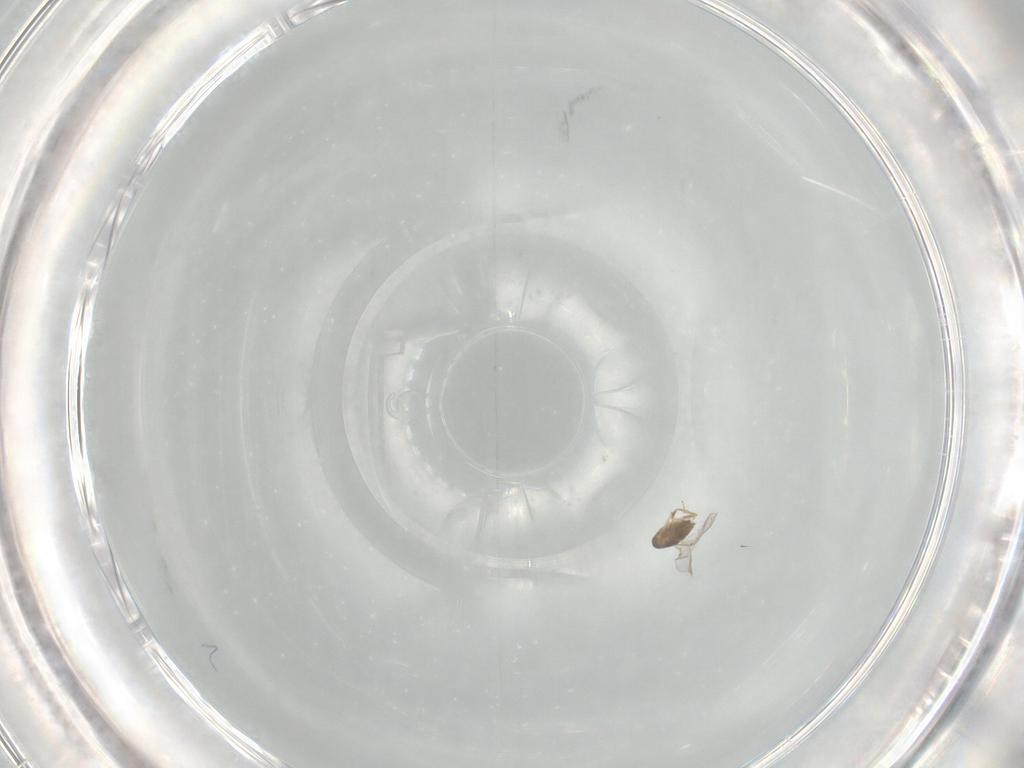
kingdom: Animalia
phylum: Arthropoda
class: Insecta
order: Hymenoptera
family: Encyrtidae
